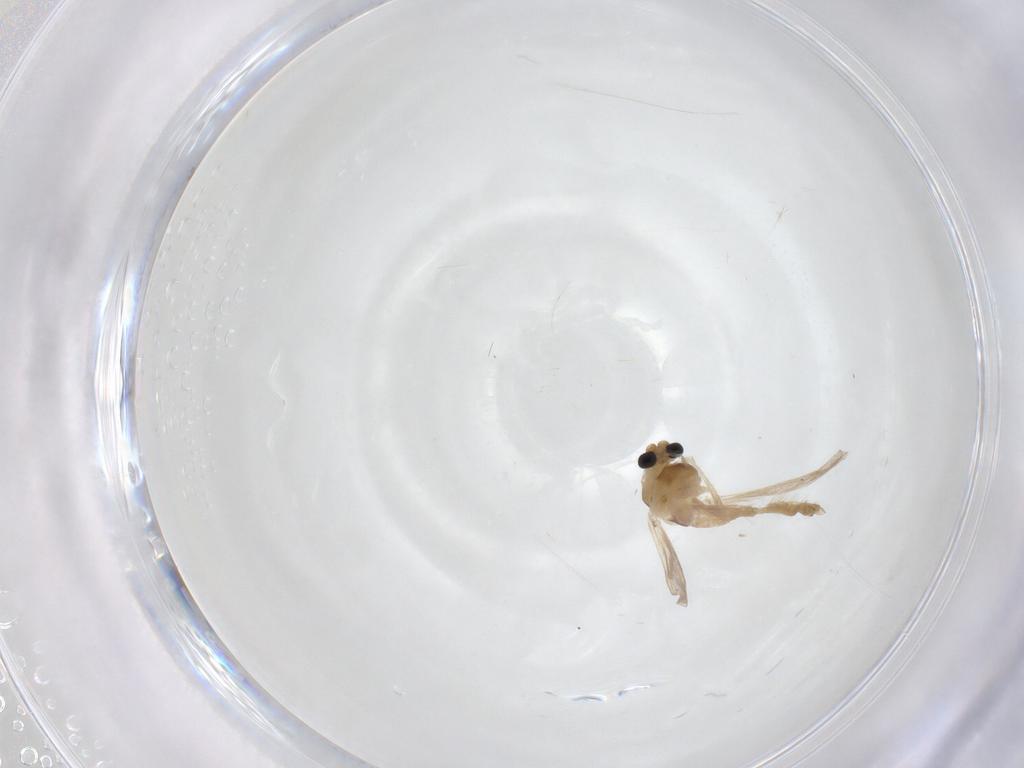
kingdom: Animalia
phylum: Arthropoda
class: Insecta
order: Diptera
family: Chironomidae
